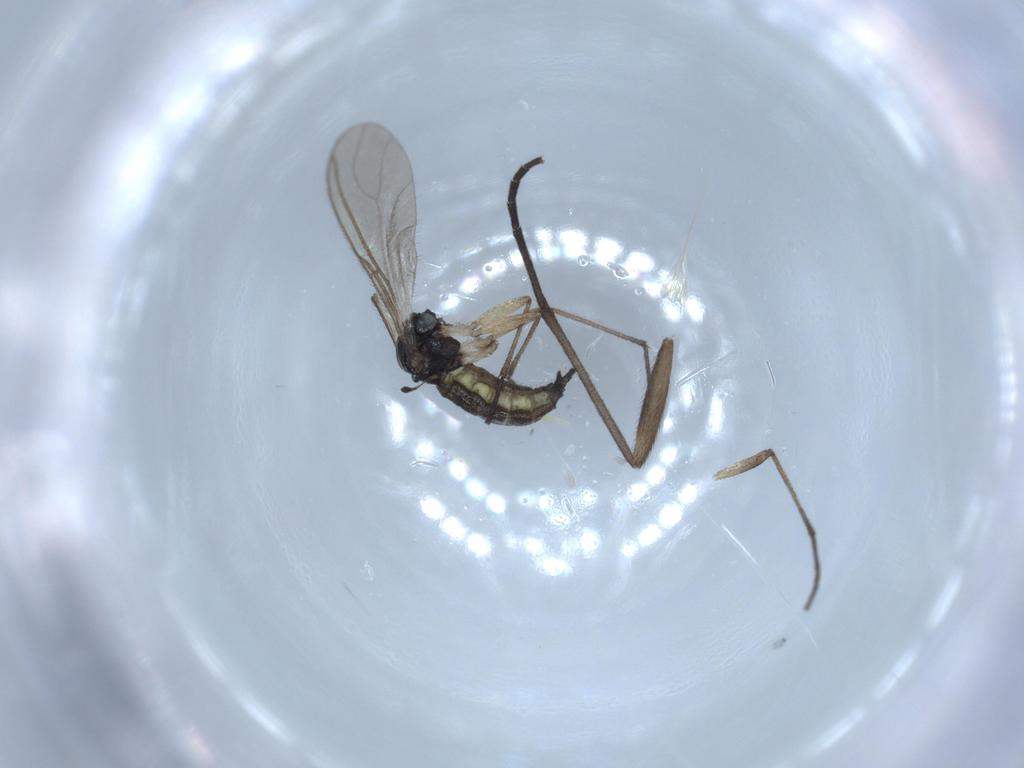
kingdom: Animalia
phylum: Arthropoda
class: Insecta
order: Diptera
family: Sciaridae
